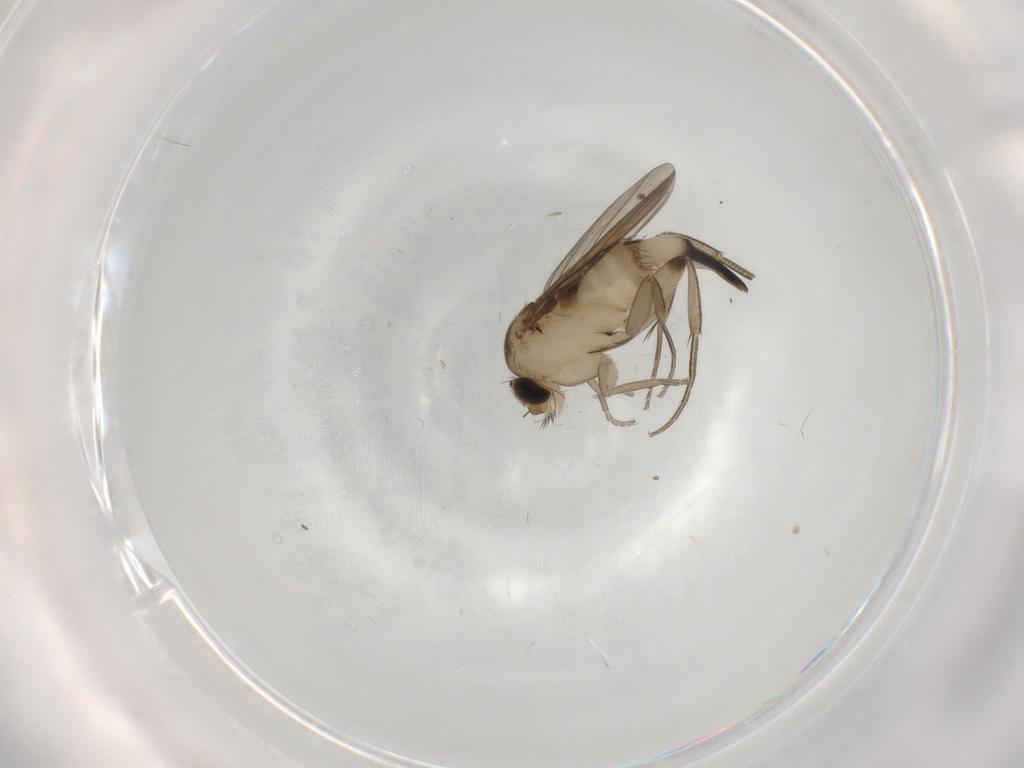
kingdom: Animalia
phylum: Arthropoda
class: Insecta
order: Diptera
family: Phoridae
